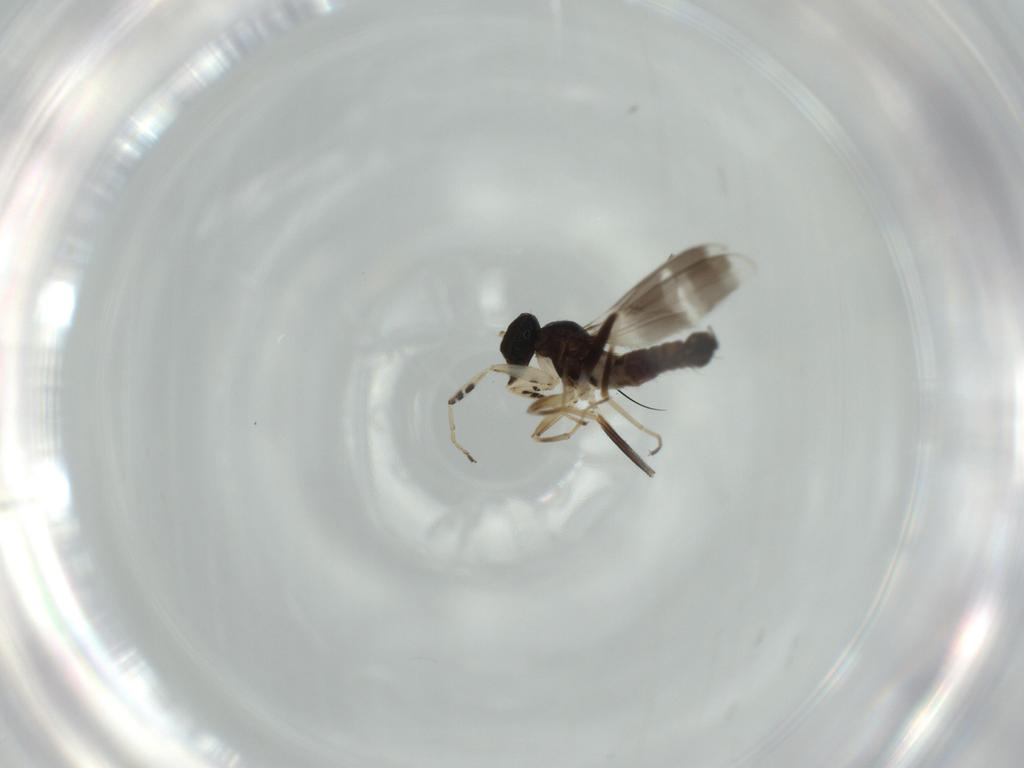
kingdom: Animalia
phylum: Arthropoda
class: Insecta
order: Diptera
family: Hybotidae
